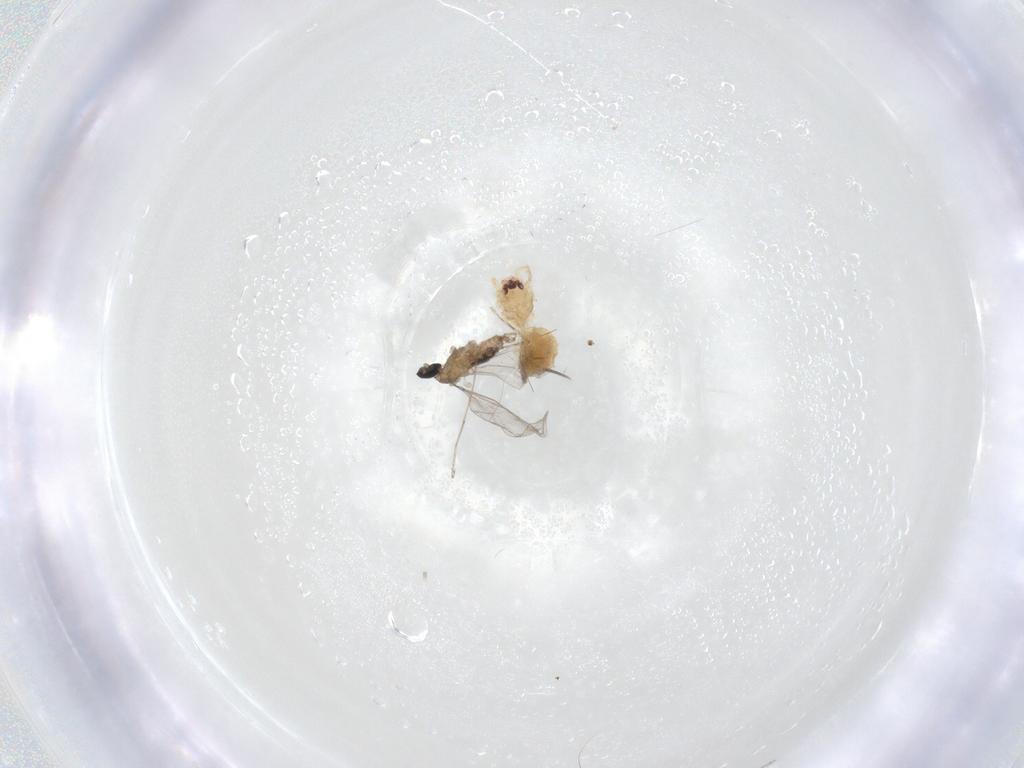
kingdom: Animalia
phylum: Arthropoda
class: Insecta
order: Diptera
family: Cecidomyiidae
